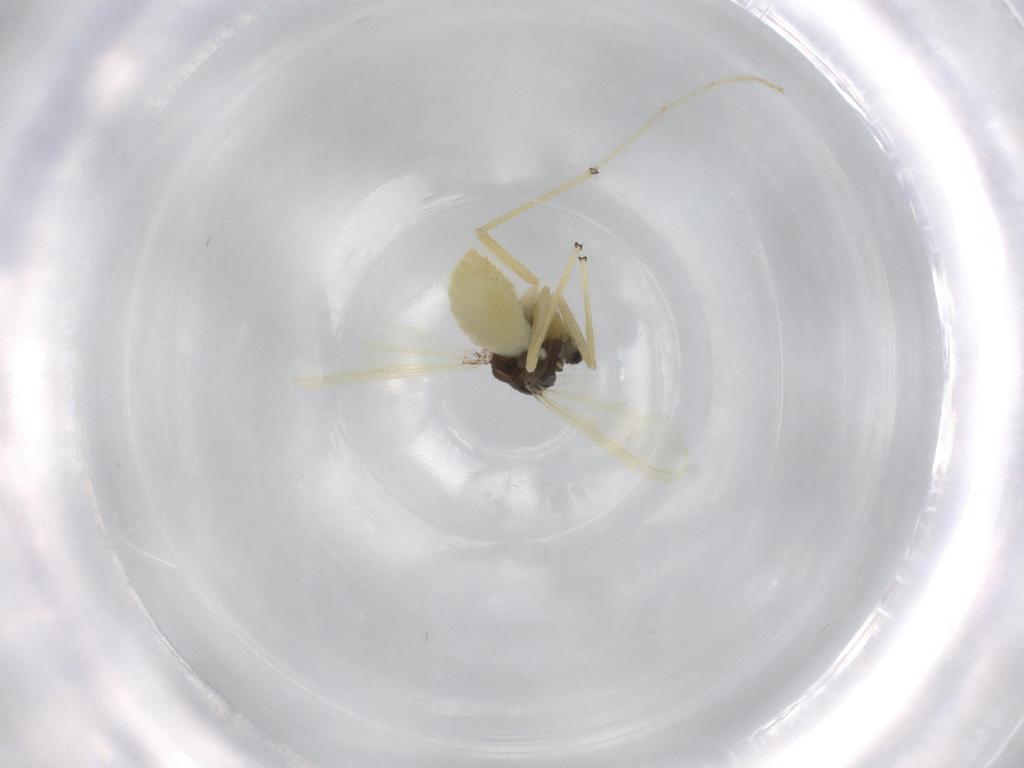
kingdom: Animalia
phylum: Arthropoda
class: Insecta
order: Diptera
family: Chironomidae
